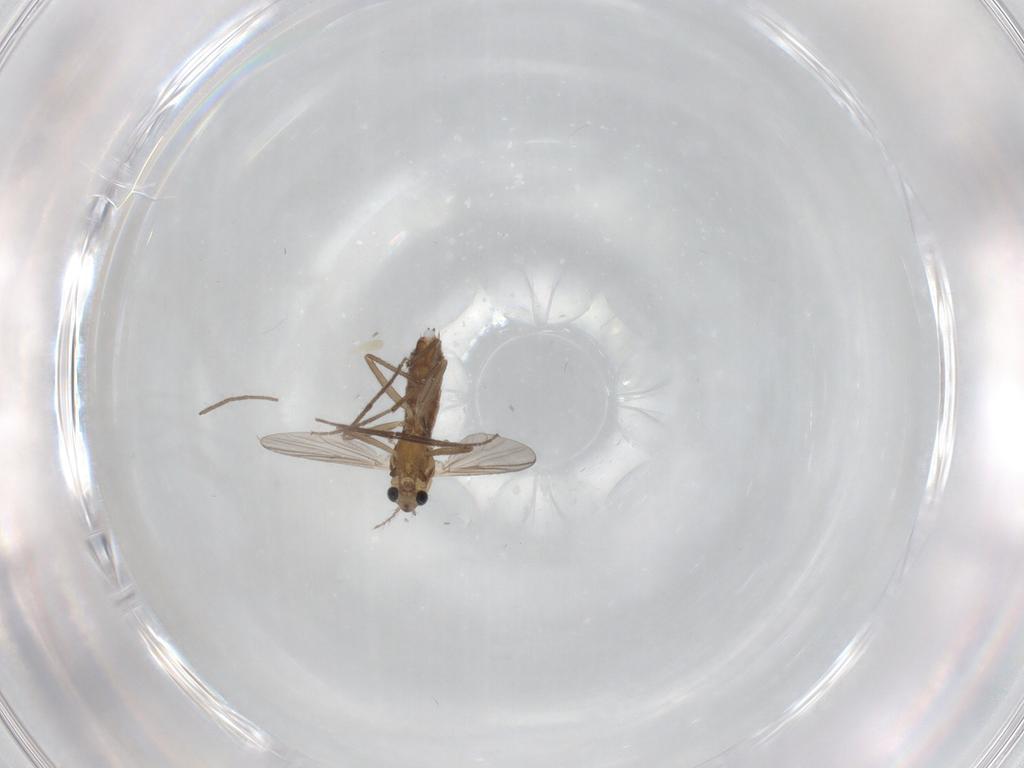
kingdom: Animalia
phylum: Arthropoda
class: Insecta
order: Diptera
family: Chironomidae
